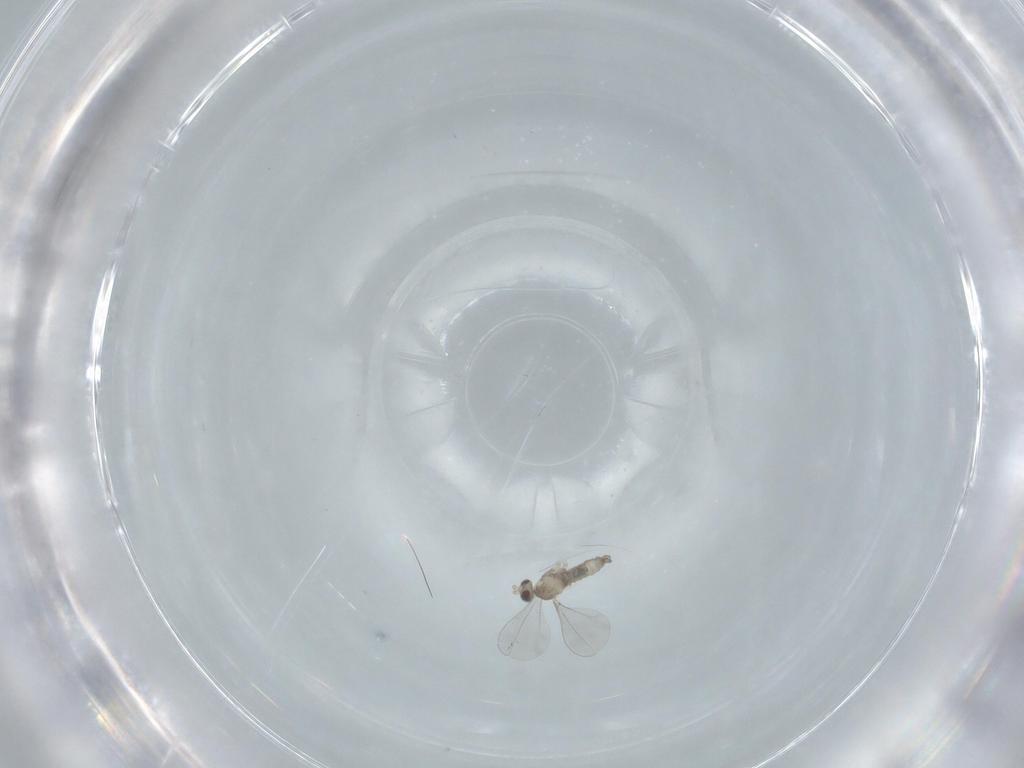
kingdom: Animalia
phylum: Arthropoda
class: Insecta
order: Diptera
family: Cecidomyiidae
